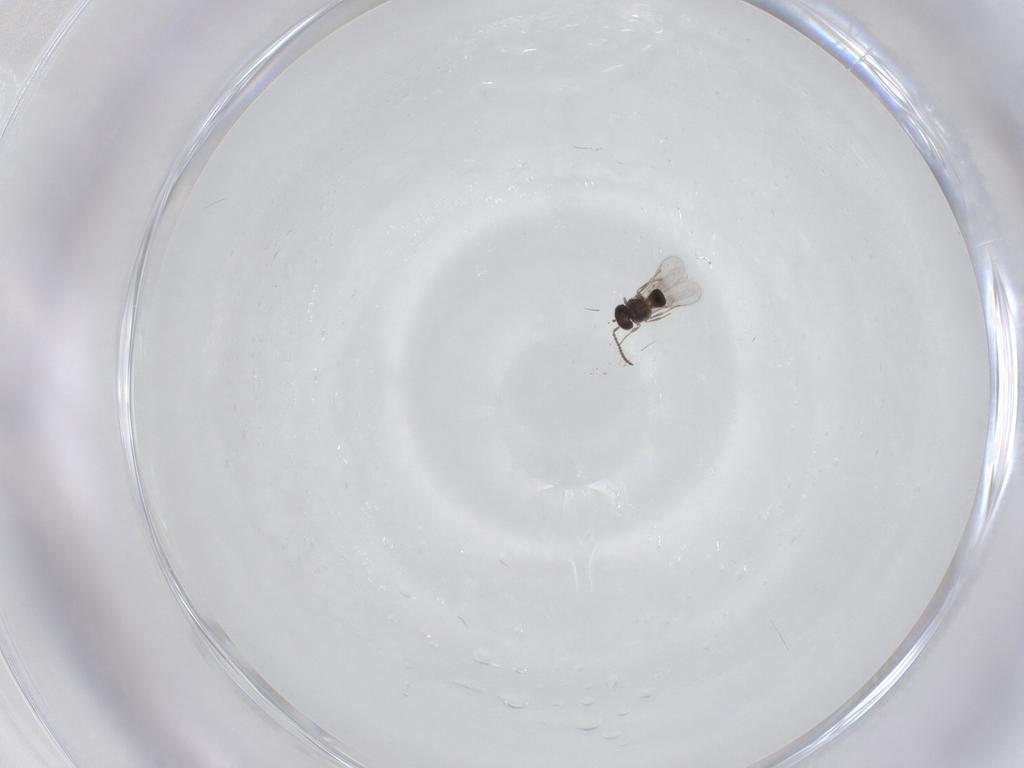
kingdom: Animalia
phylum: Arthropoda
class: Insecta
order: Hymenoptera
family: Scelionidae
